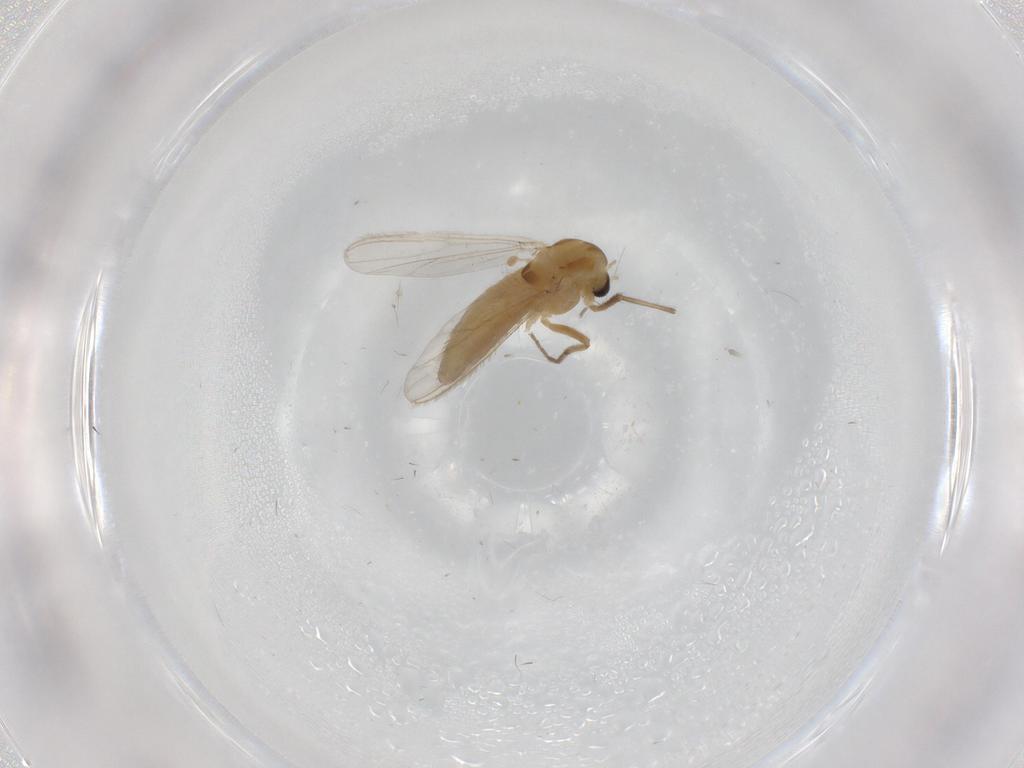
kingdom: Animalia
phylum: Arthropoda
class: Insecta
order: Diptera
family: Chironomidae
